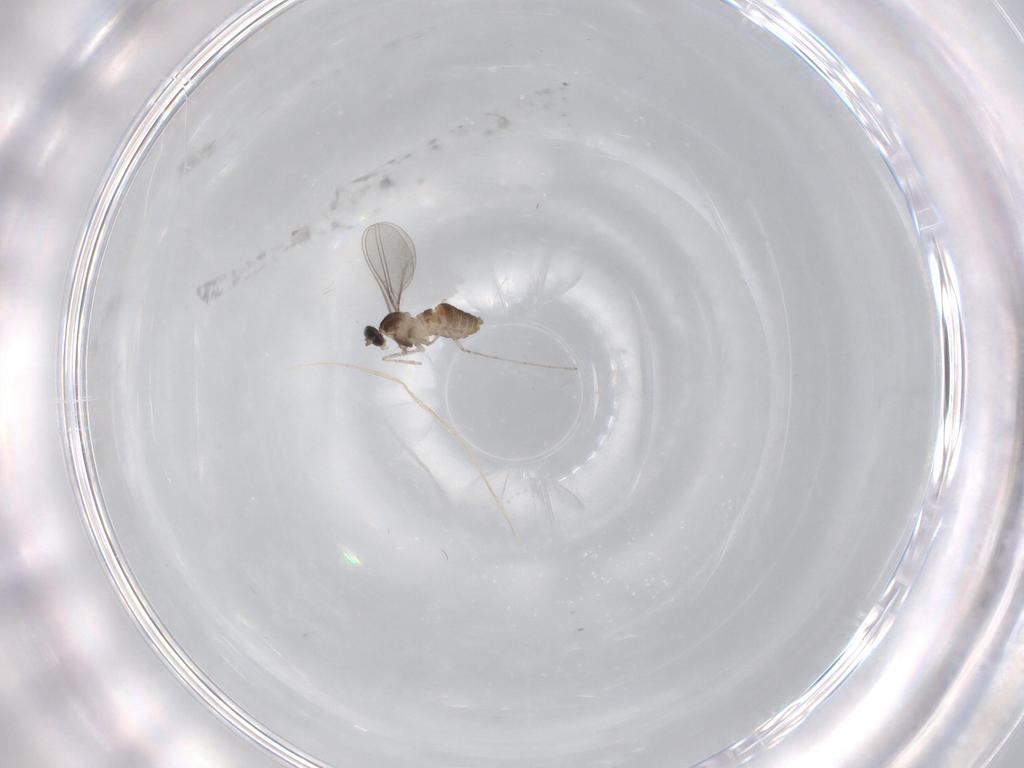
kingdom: Animalia
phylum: Arthropoda
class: Insecta
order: Diptera
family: Cecidomyiidae
